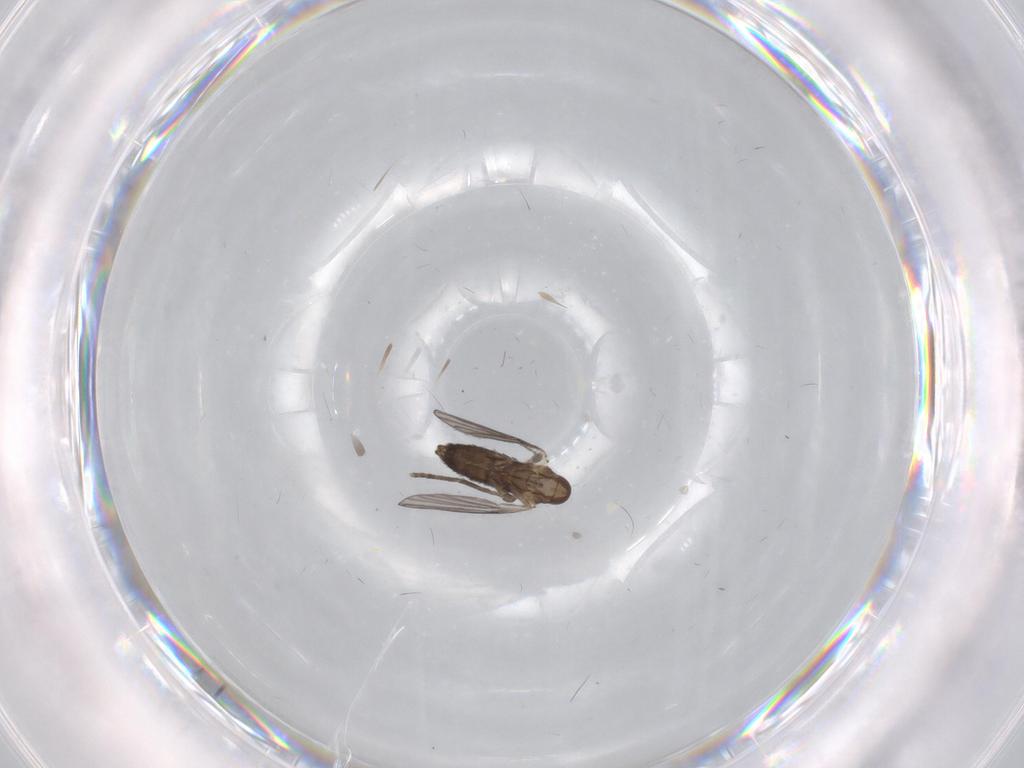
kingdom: Animalia
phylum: Arthropoda
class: Insecta
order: Diptera
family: Psychodidae
